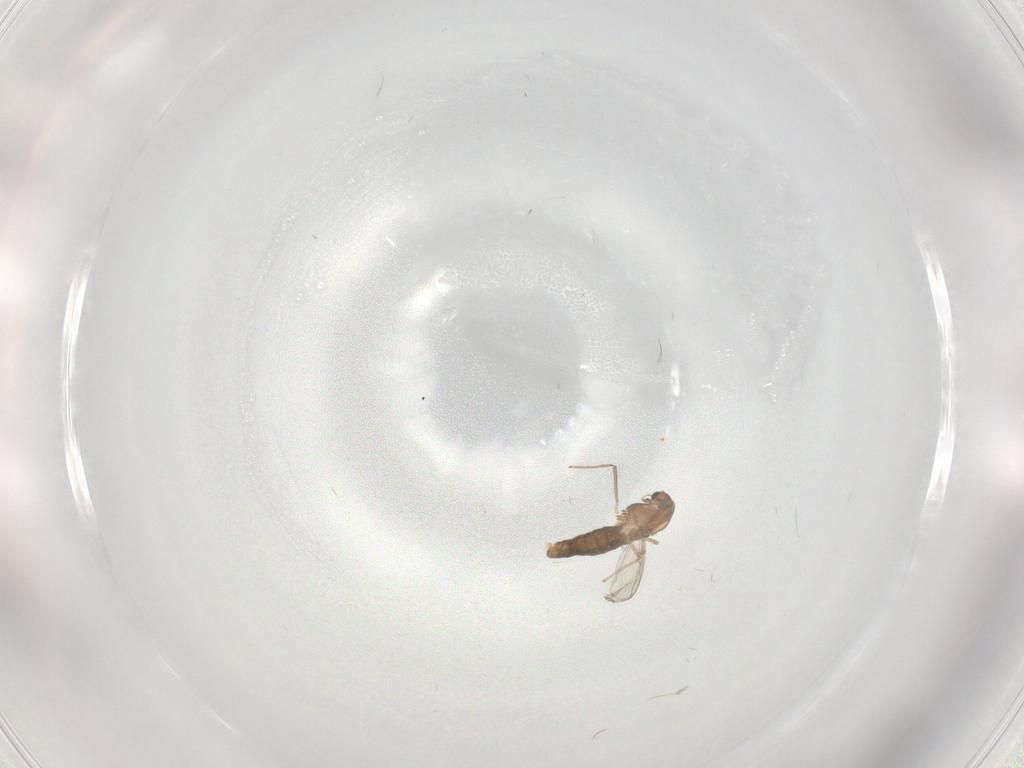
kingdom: Animalia
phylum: Arthropoda
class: Insecta
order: Diptera
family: Chironomidae
